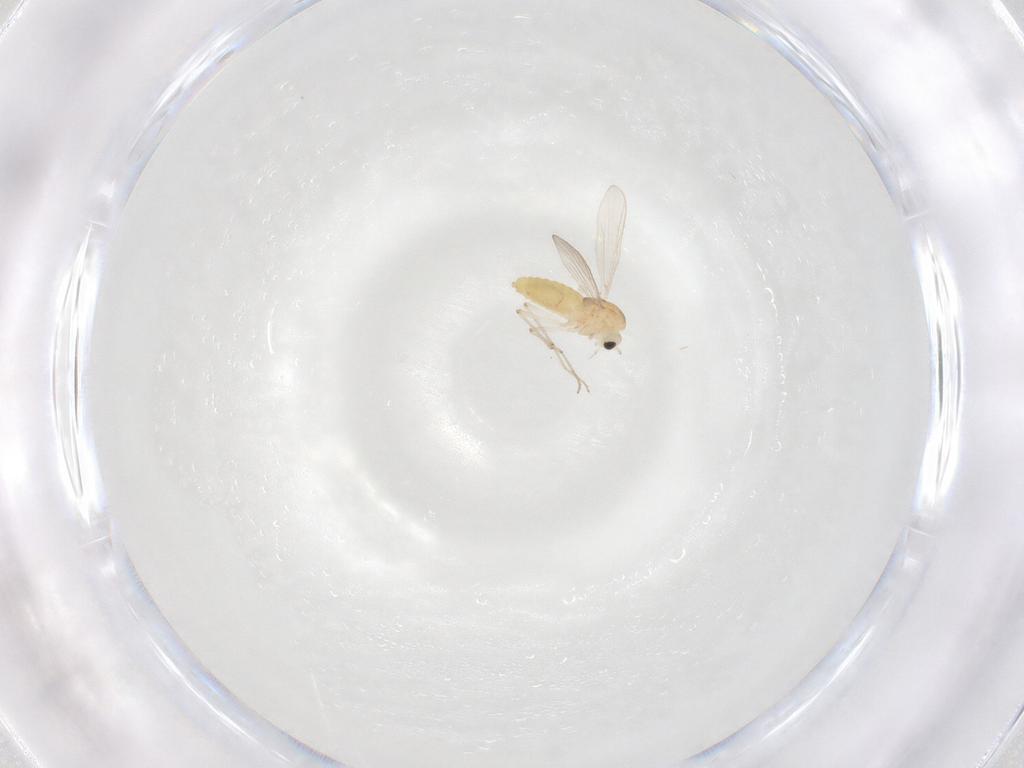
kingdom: Animalia
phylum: Arthropoda
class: Insecta
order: Diptera
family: Chironomidae
